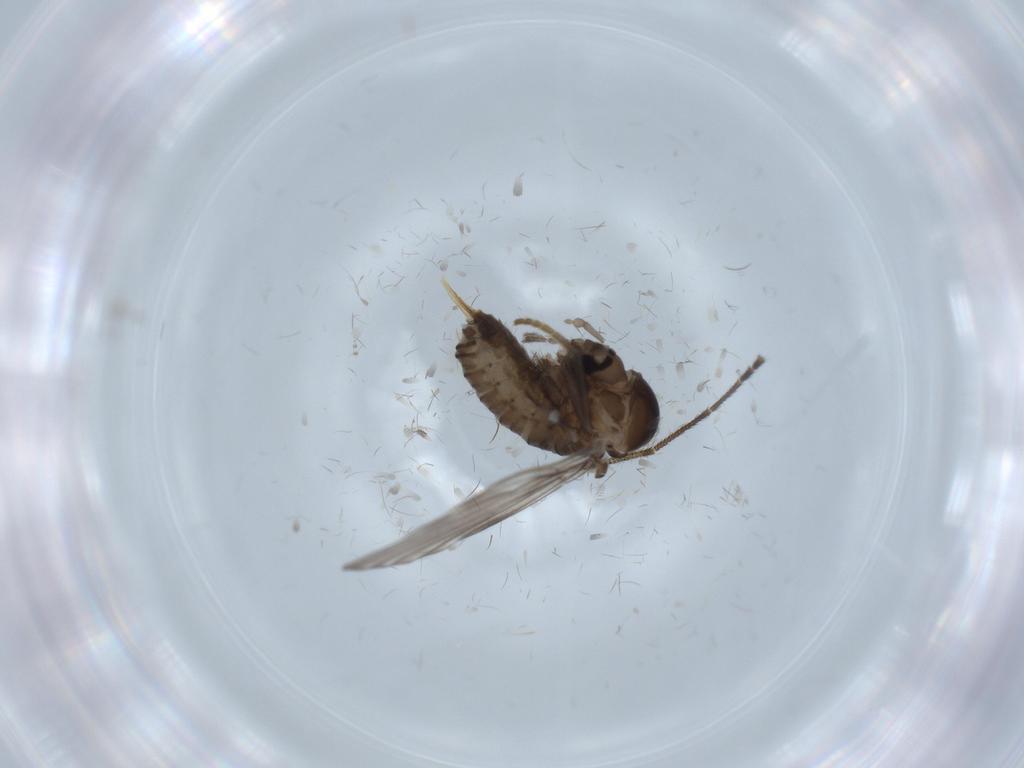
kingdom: Animalia
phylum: Arthropoda
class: Insecta
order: Diptera
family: Psychodidae
